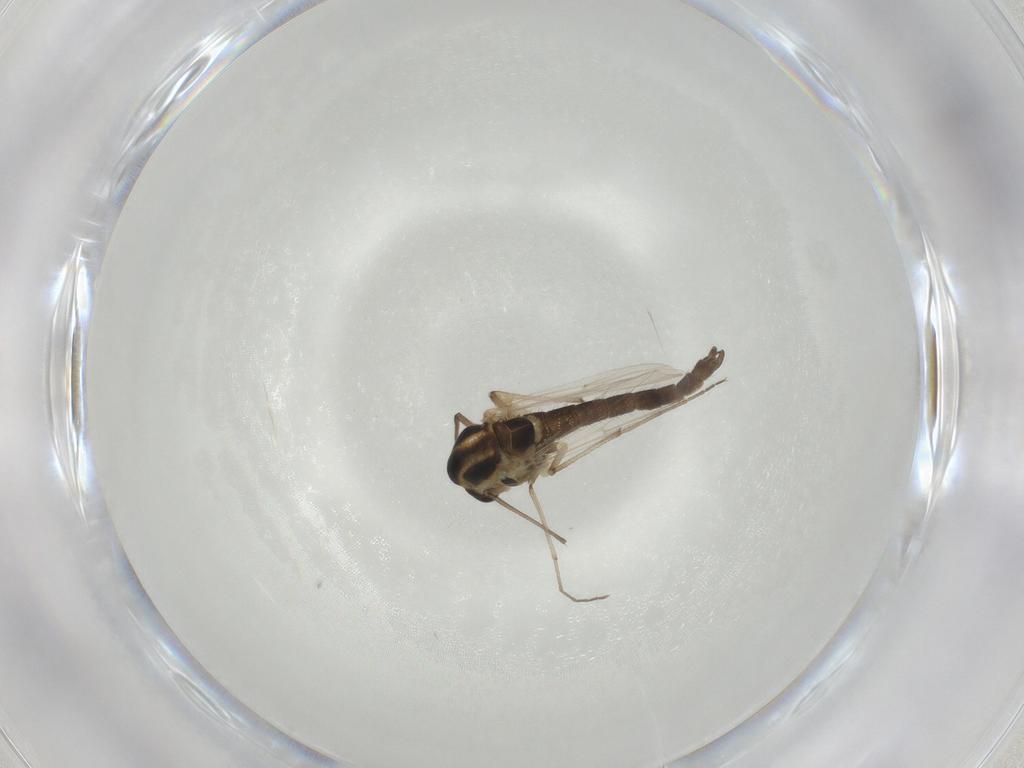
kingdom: Animalia
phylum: Arthropoda
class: Insecta
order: Diptera
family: Chironomidae
